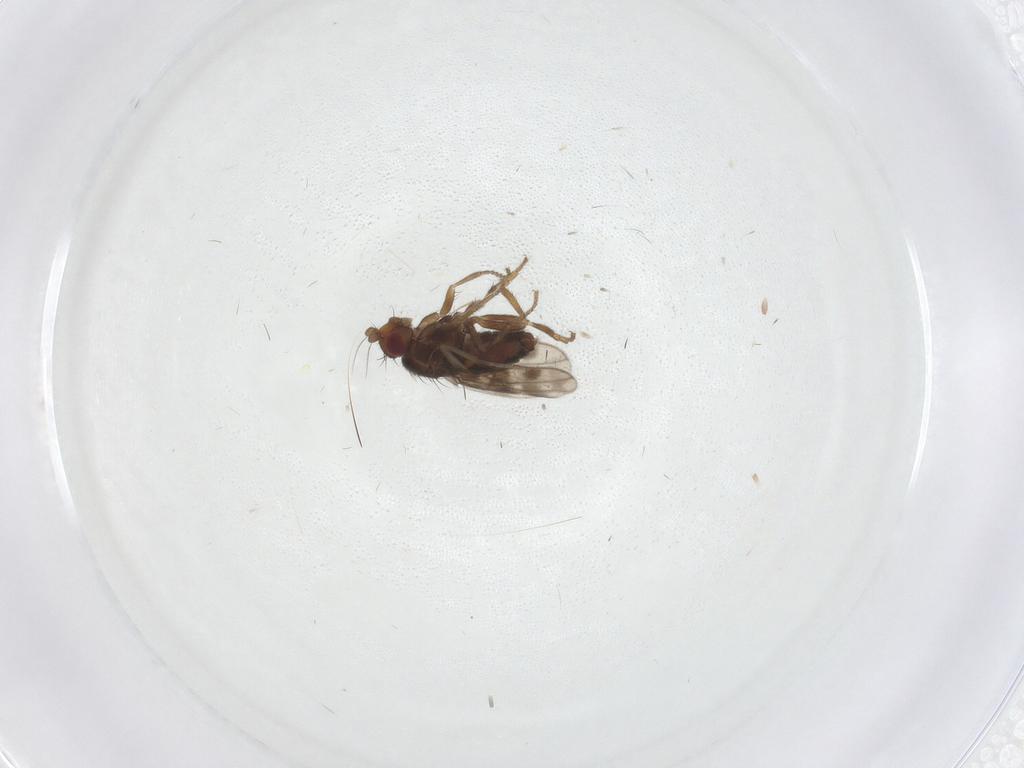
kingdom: Animalia
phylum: Arthropoda
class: Insecta
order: Diptera
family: Chironomidae
